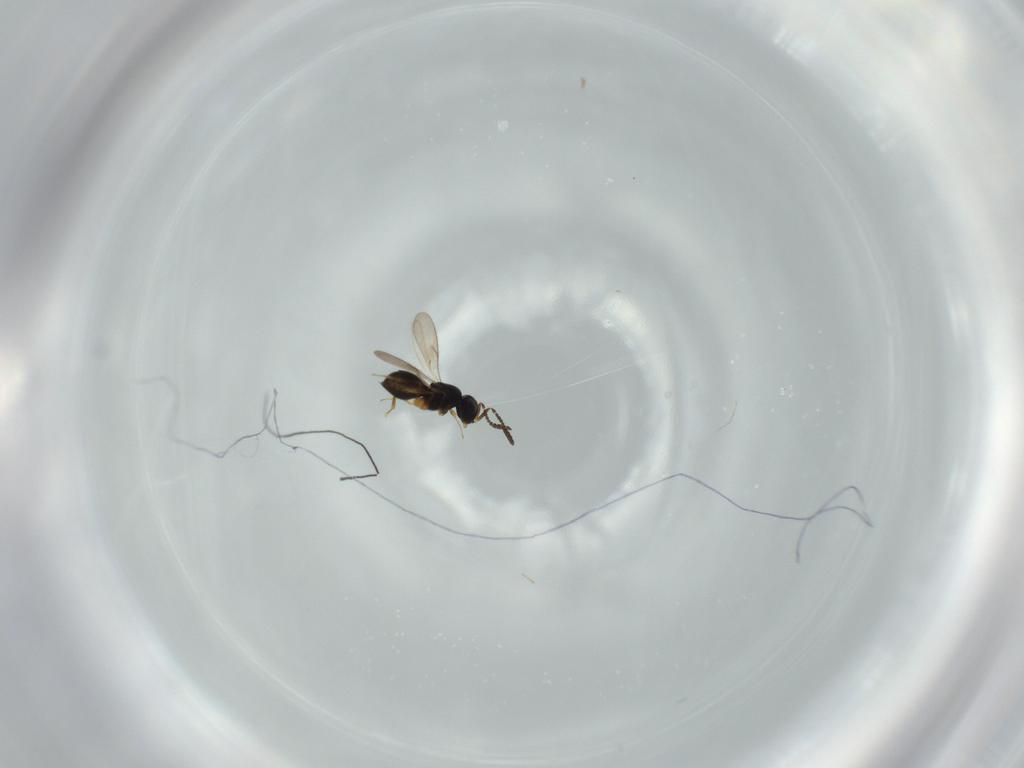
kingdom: Animalia
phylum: Arthropoda
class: Insecta
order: Hymenoptera
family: Scelionidae
